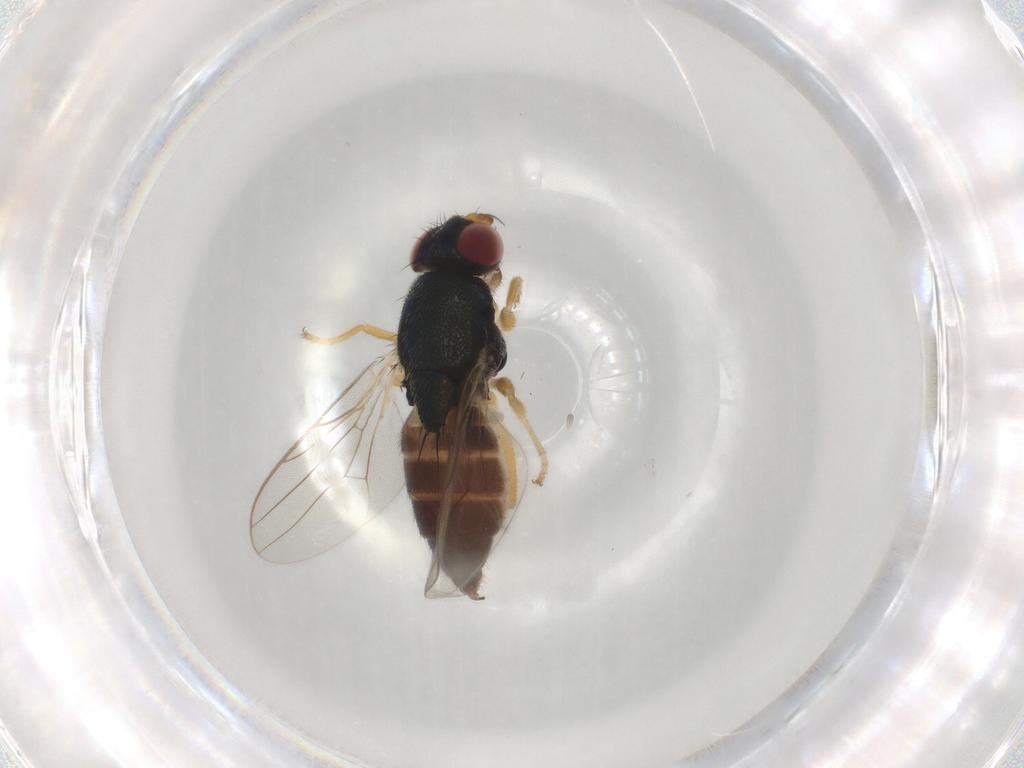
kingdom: Animalia
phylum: Arthropoda
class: Insecta
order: Diptera
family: Chloropidae
